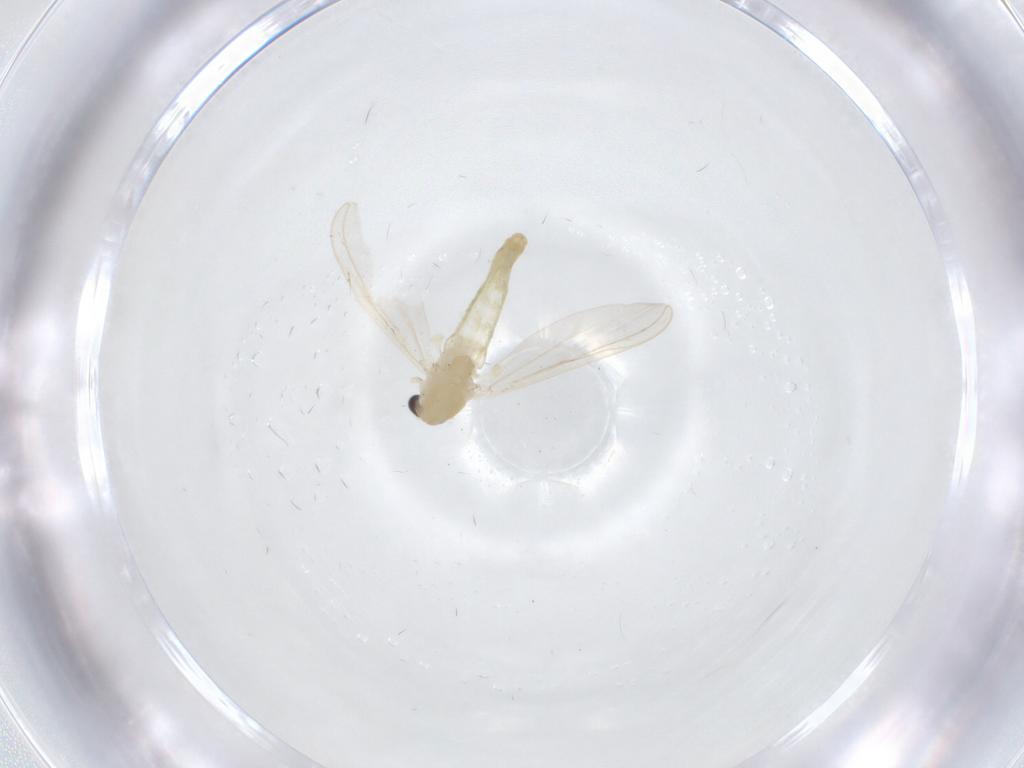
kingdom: Animalia
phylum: Arthropoda
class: Insecta
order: Diptera
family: Chironomidae
